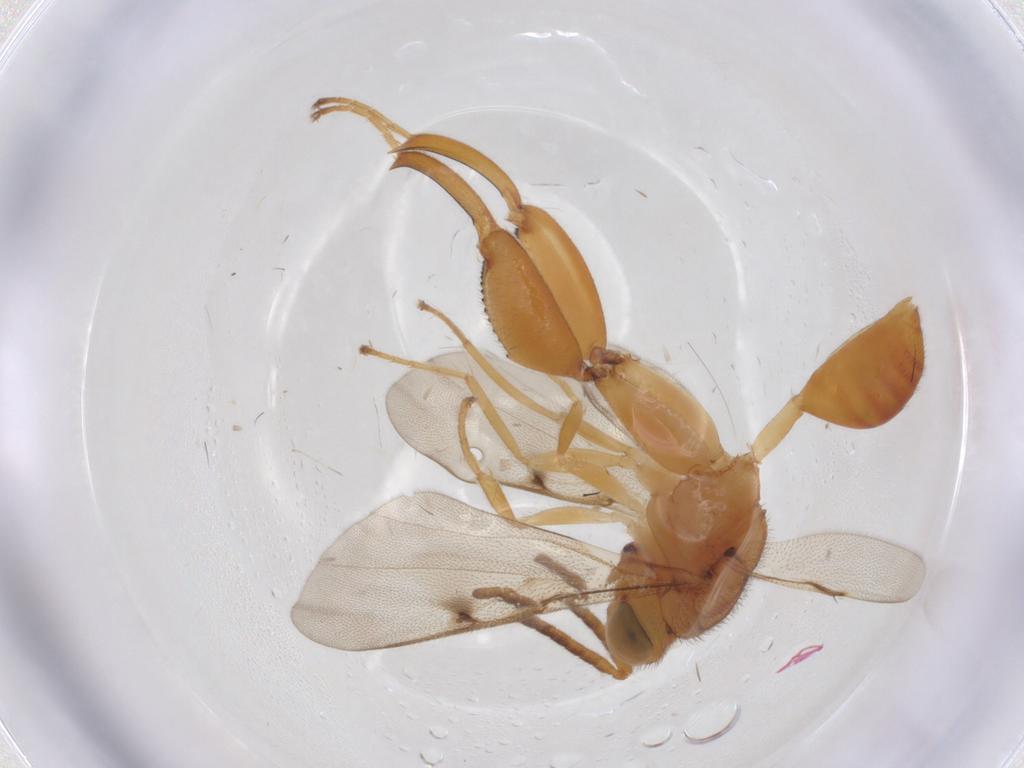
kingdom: Animalia
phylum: Arthropoda
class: Insecta
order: Hymenoptera
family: Chalcididae
